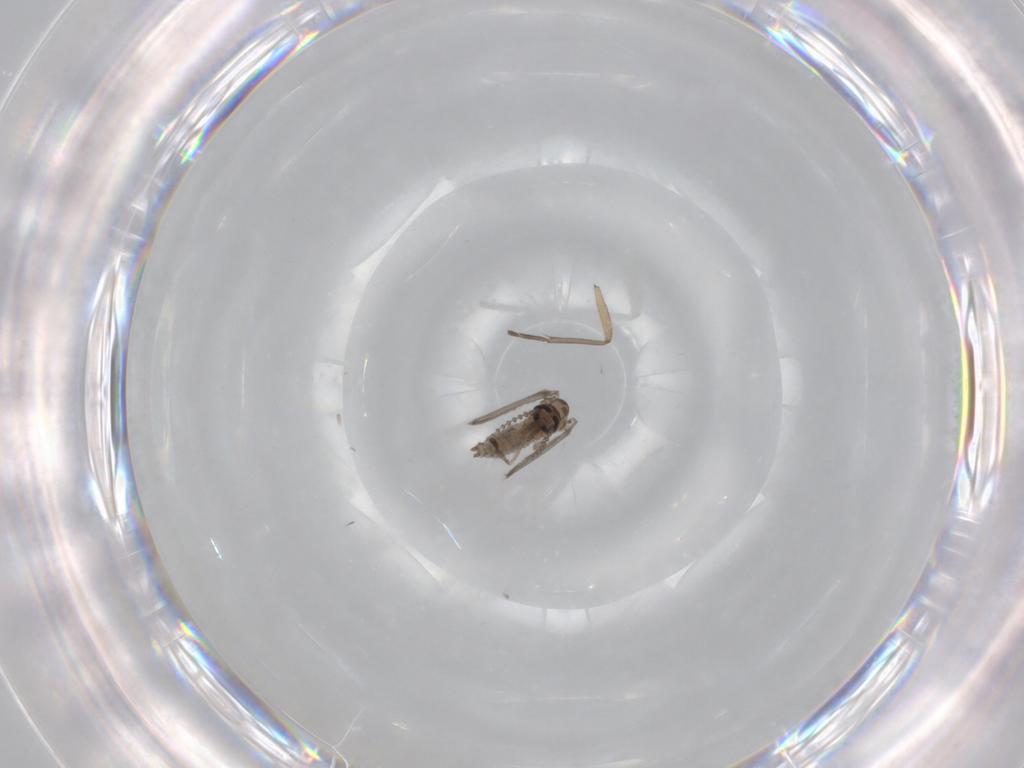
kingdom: Animalia
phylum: Arthropoda
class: Insecta
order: Diptera
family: Psychodidae
